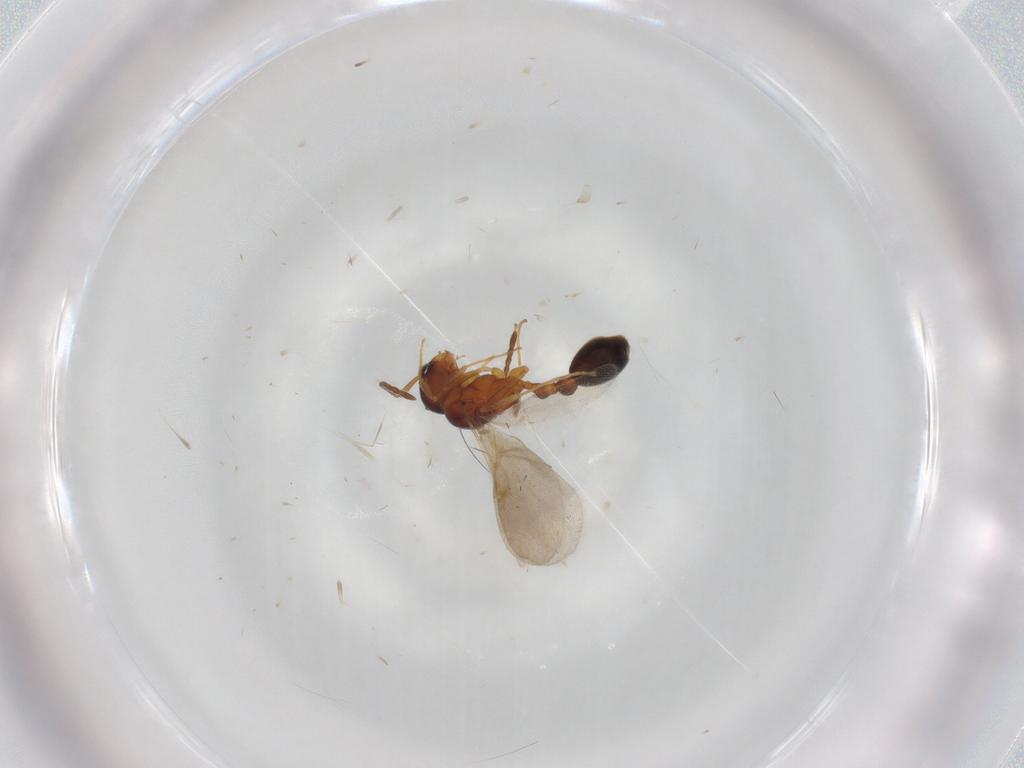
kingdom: Animalia
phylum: Arthropoda
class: Insecta
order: Hymenoptera
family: Formicidae
